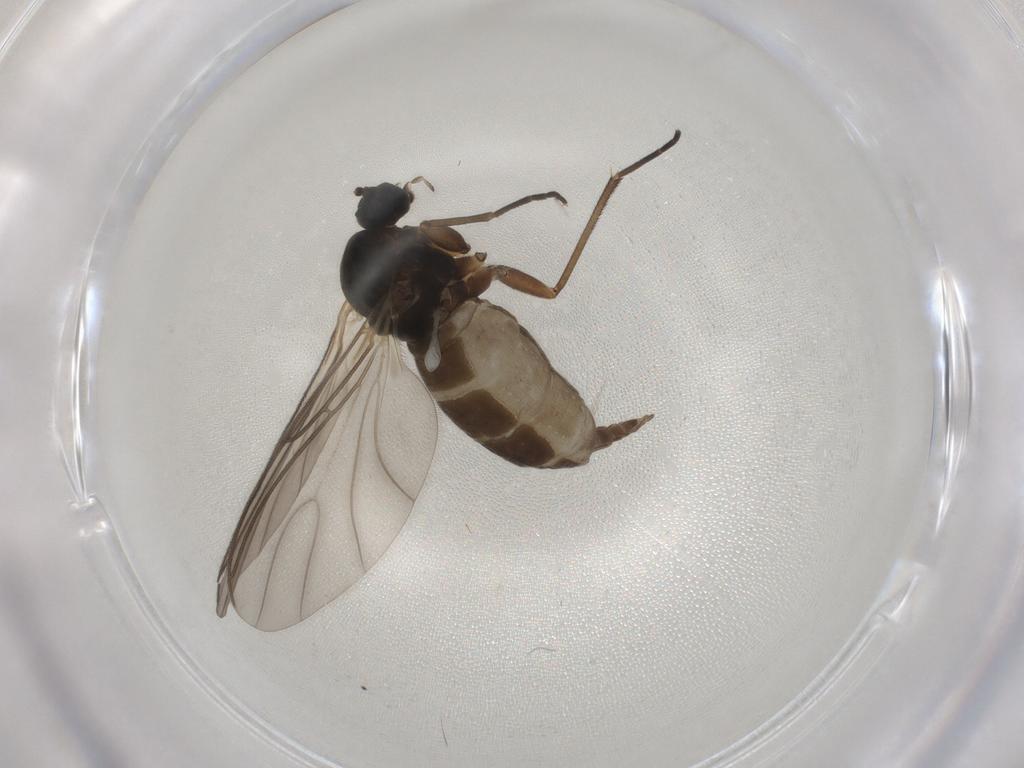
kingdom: Animalia
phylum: Arthropoda
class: Insecta
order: Diptera
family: Sciaridae
